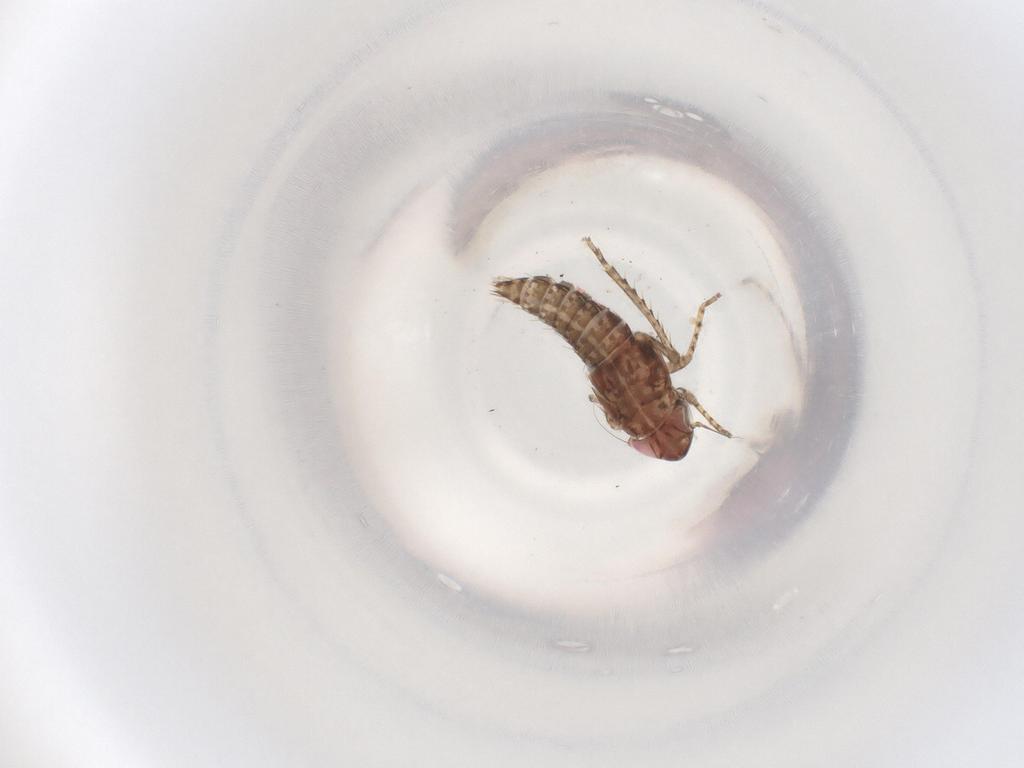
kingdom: Animalia
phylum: Arthropoda
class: Insecta
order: Hemiptera
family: Cicadellidae
